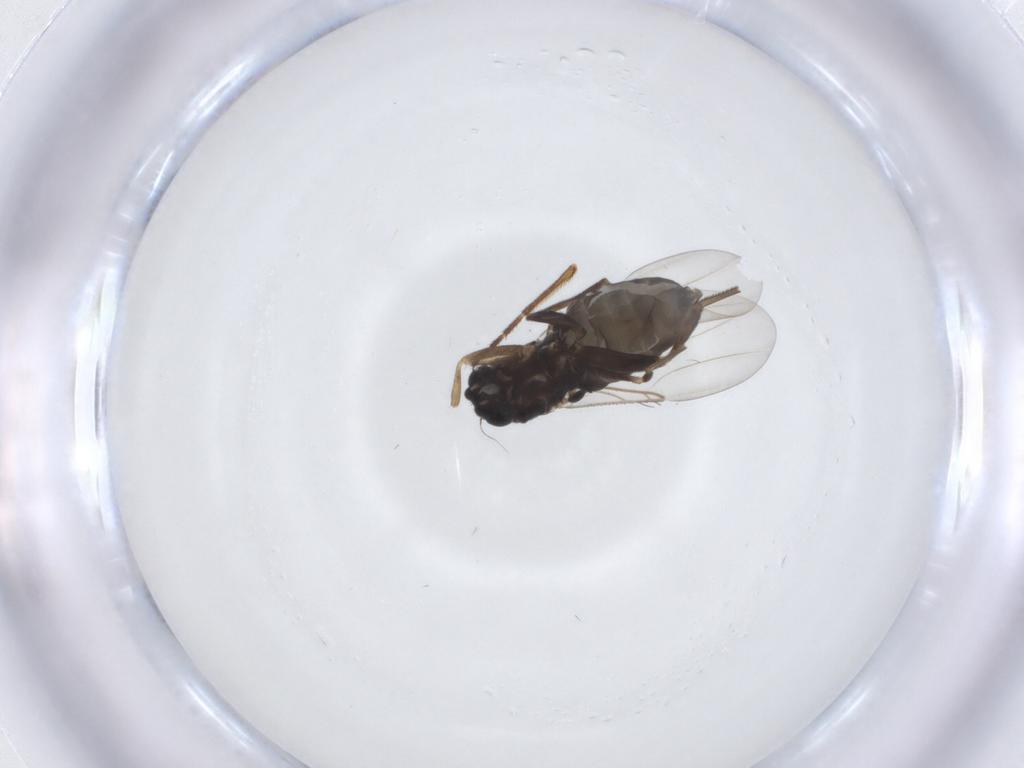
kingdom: Animalia
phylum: Arthropoda
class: Insecta
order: Diptera
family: Phoridae
